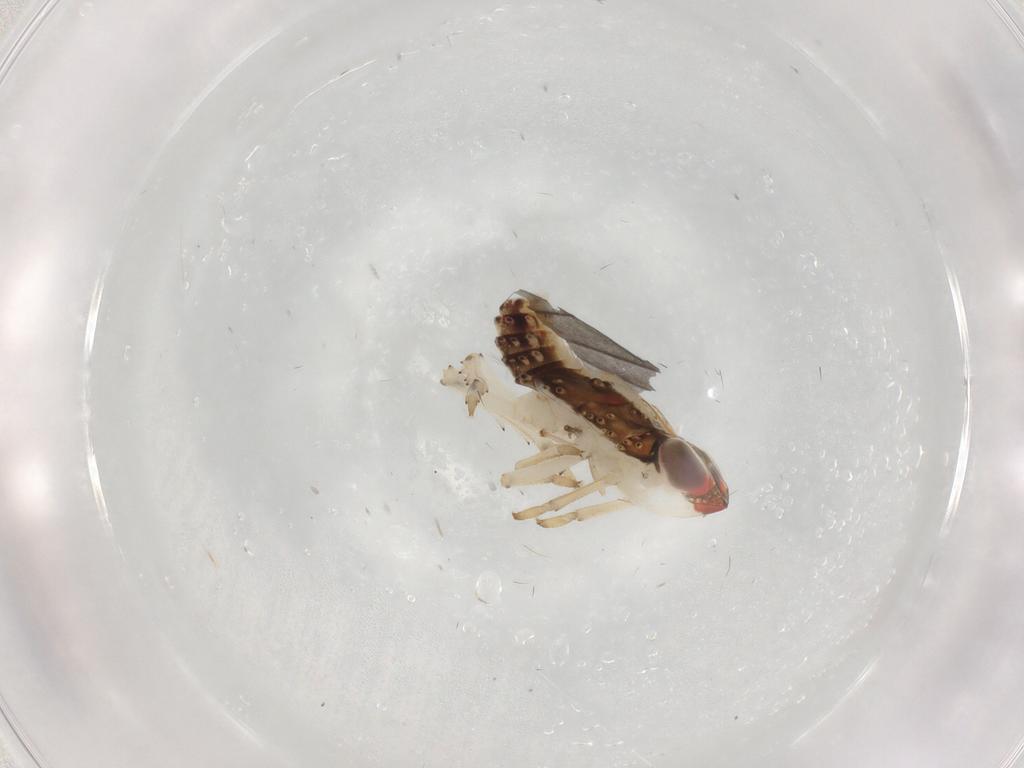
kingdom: Animalia
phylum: Arthropoda
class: Insecta
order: Hemiptera
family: Fulgoroidea_incertae_sedis
